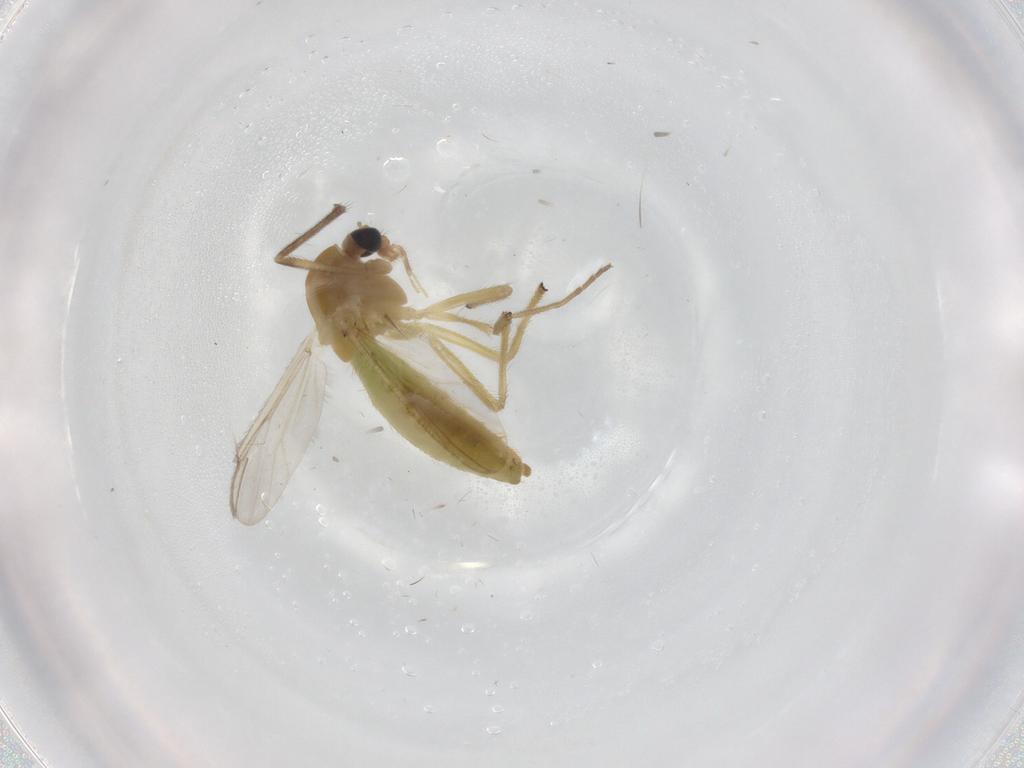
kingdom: Animalia
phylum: Arthropoda
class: Insecta
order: Diptera
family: Chironomidae
